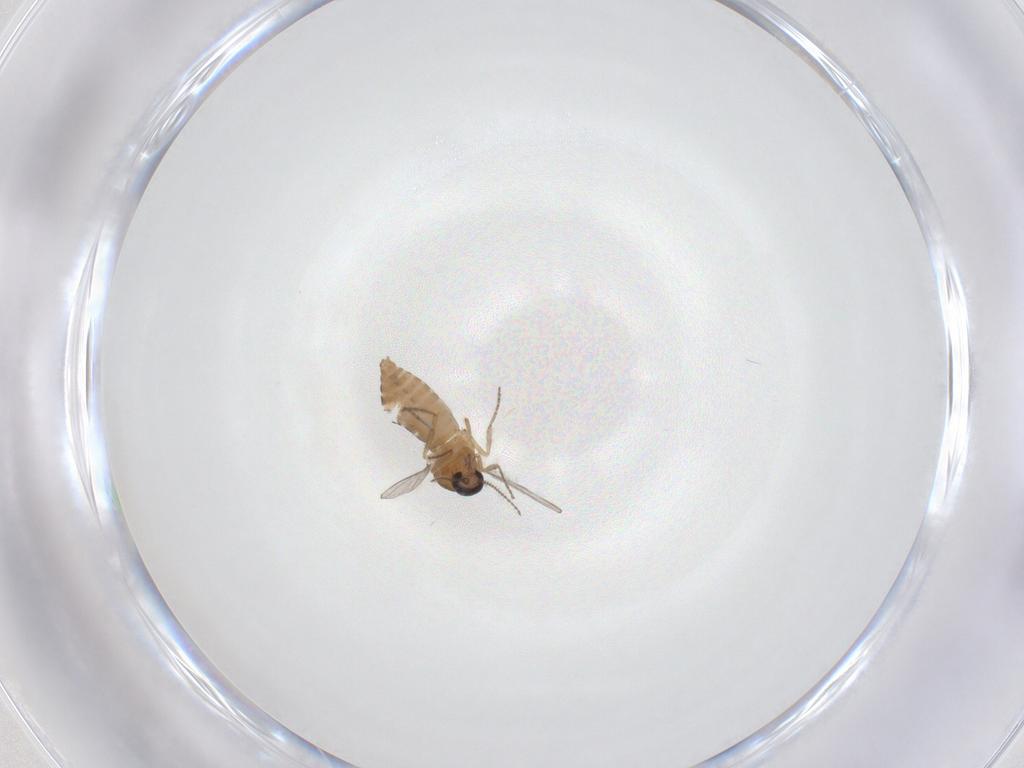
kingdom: Animalia
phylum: Arthropoda
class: Insecta
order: Diptera
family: Ceratopogonidae
